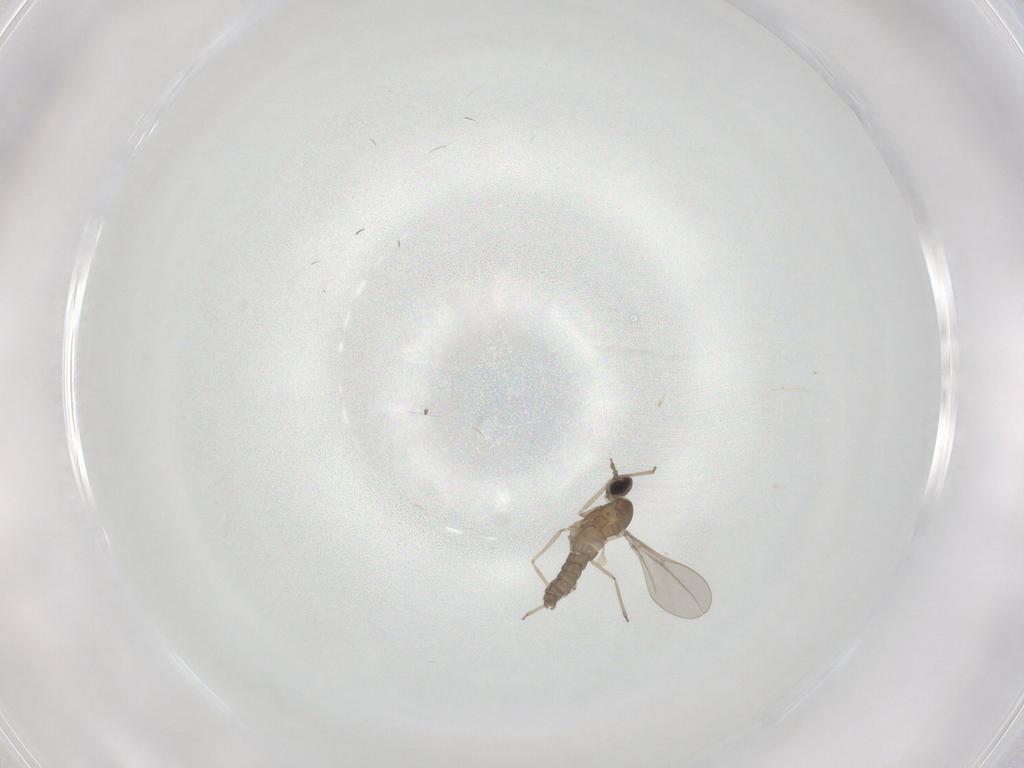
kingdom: Animalia
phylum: Arthropoda
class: Insecta
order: Diptera
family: Cecidomyiidae
